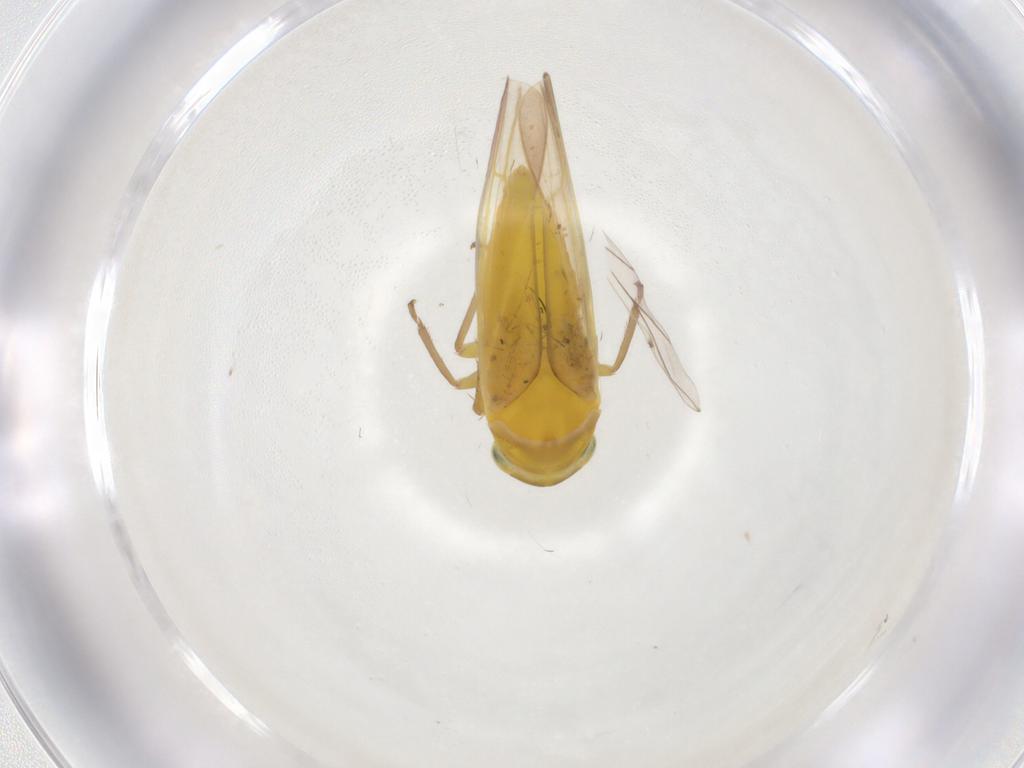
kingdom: Animalia
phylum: Arthropoda
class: Insecta
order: Hemiptera
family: Cicadellidae
